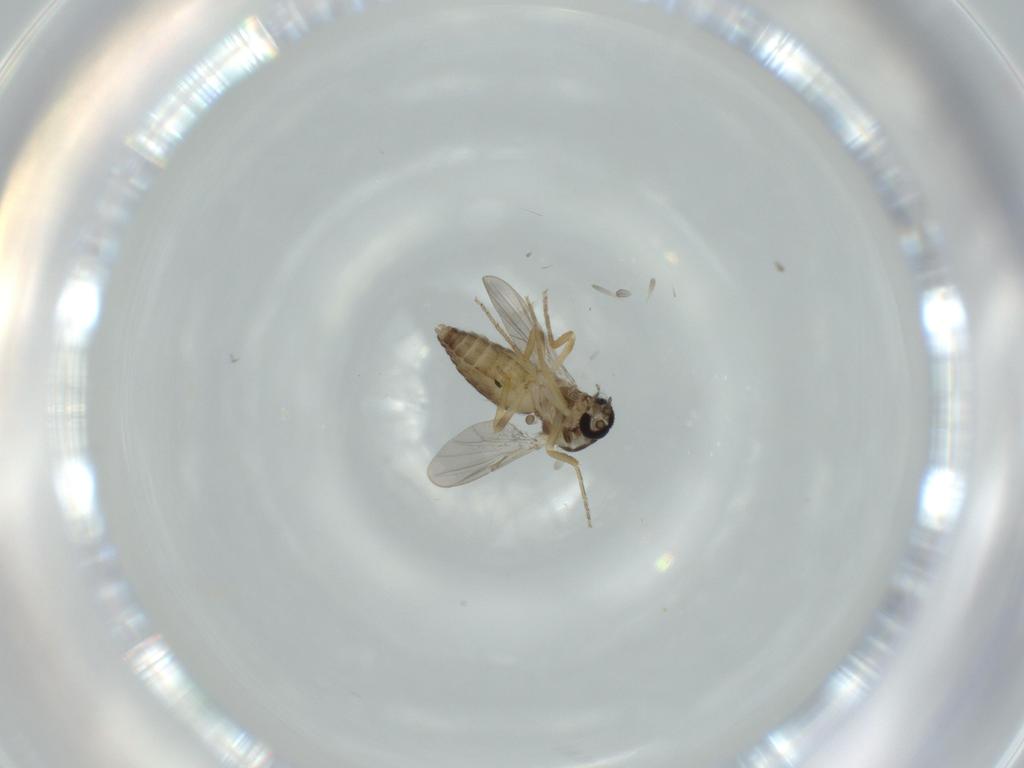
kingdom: Animalia
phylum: Arthropoda
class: Insecta
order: Diptera
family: Ceratopogonidae
